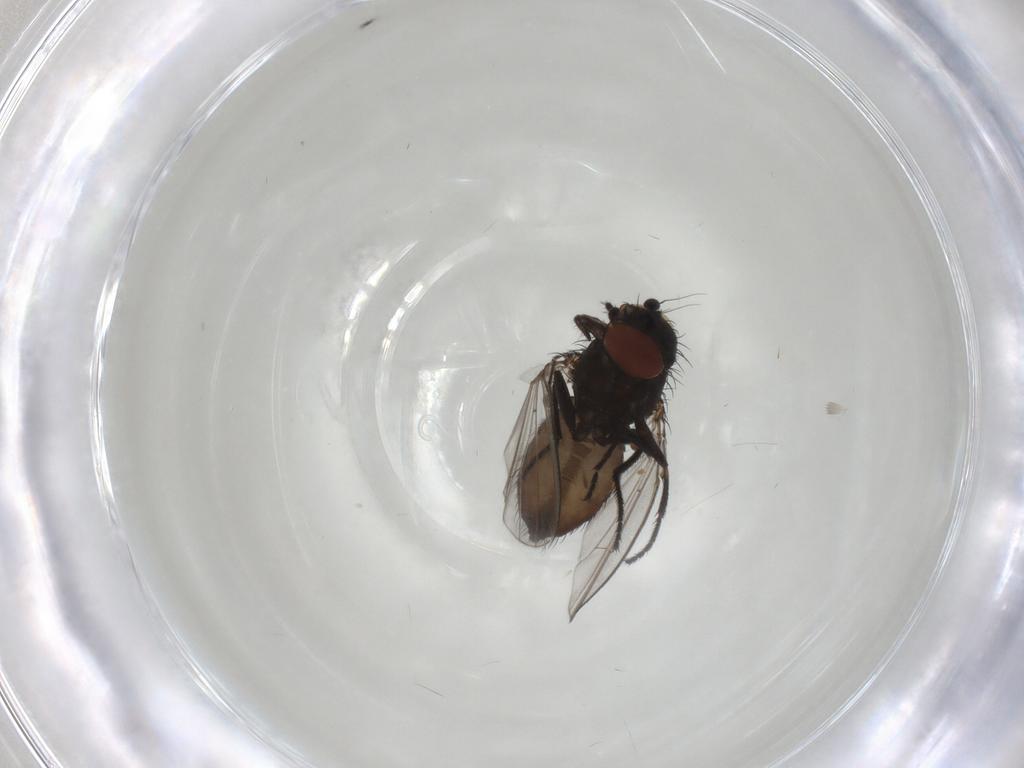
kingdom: Animalia
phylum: Arthropoda
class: Insecta
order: Diptera
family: Milichiidae
